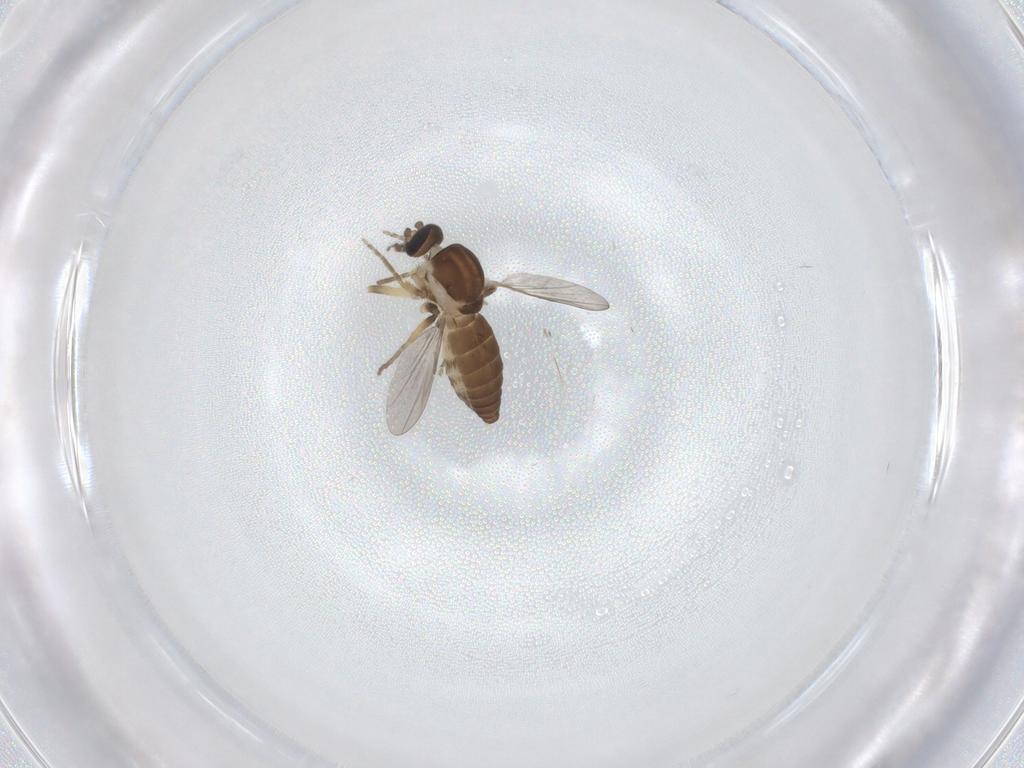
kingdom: Animalia
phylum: Arthropoda
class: Insecta
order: Diptera
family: Ceratopogonidae
